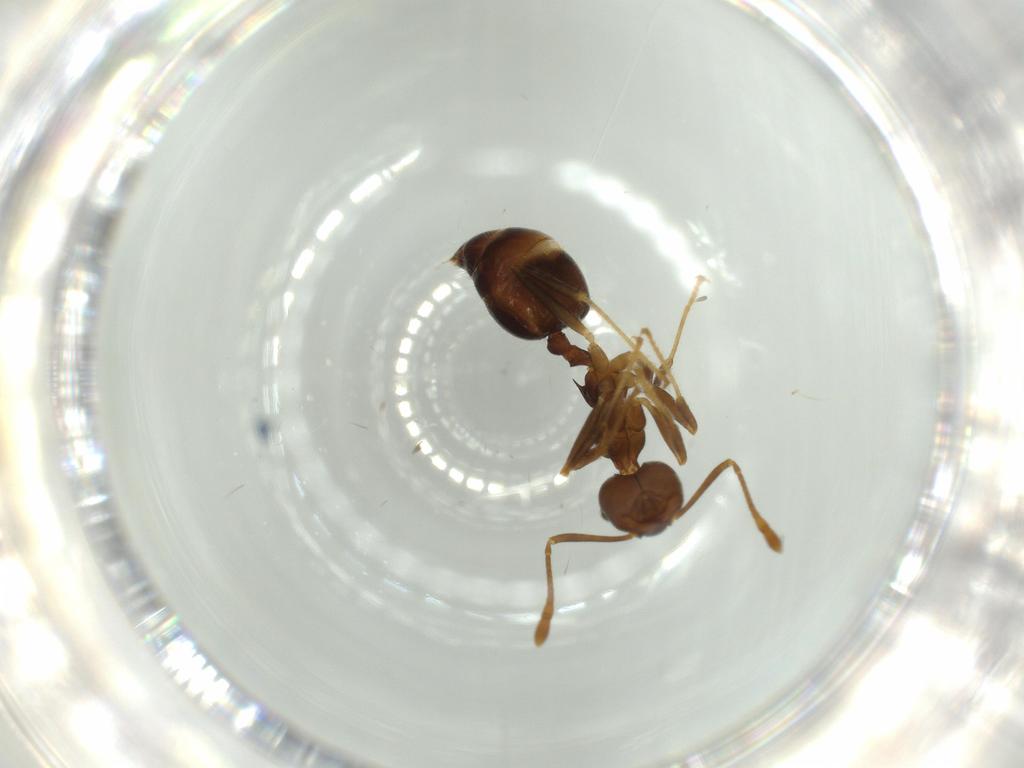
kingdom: Animalia
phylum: Arthropoda
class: Insecta
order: Hymenoptera
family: Formicidae
